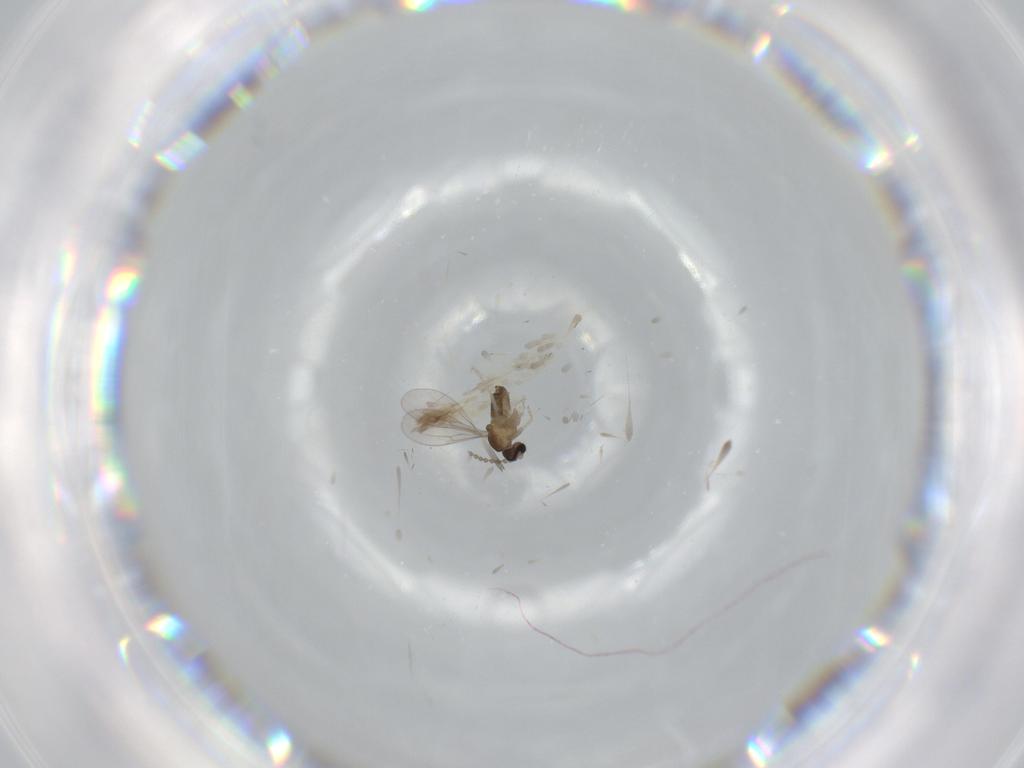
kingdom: Animalia
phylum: Arthropoda
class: Insecta
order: Diptera
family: Cecidomyiidae
